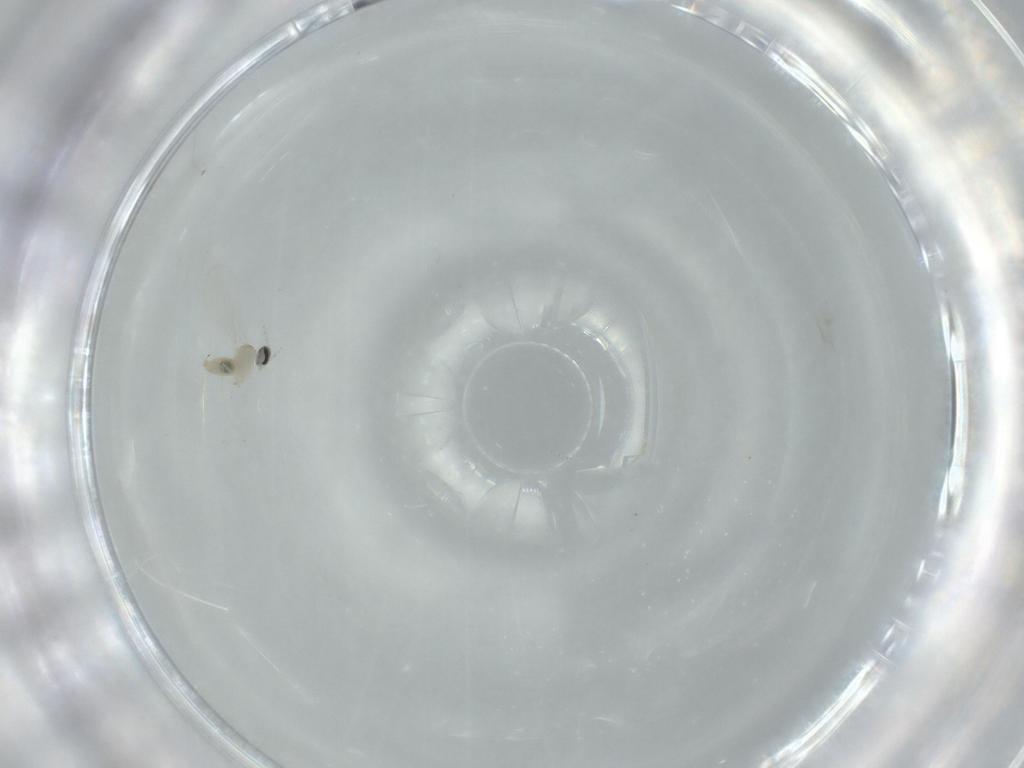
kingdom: Animalia
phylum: Arthropoda
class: Insecta
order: Diptera
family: Cecidomyiidae
